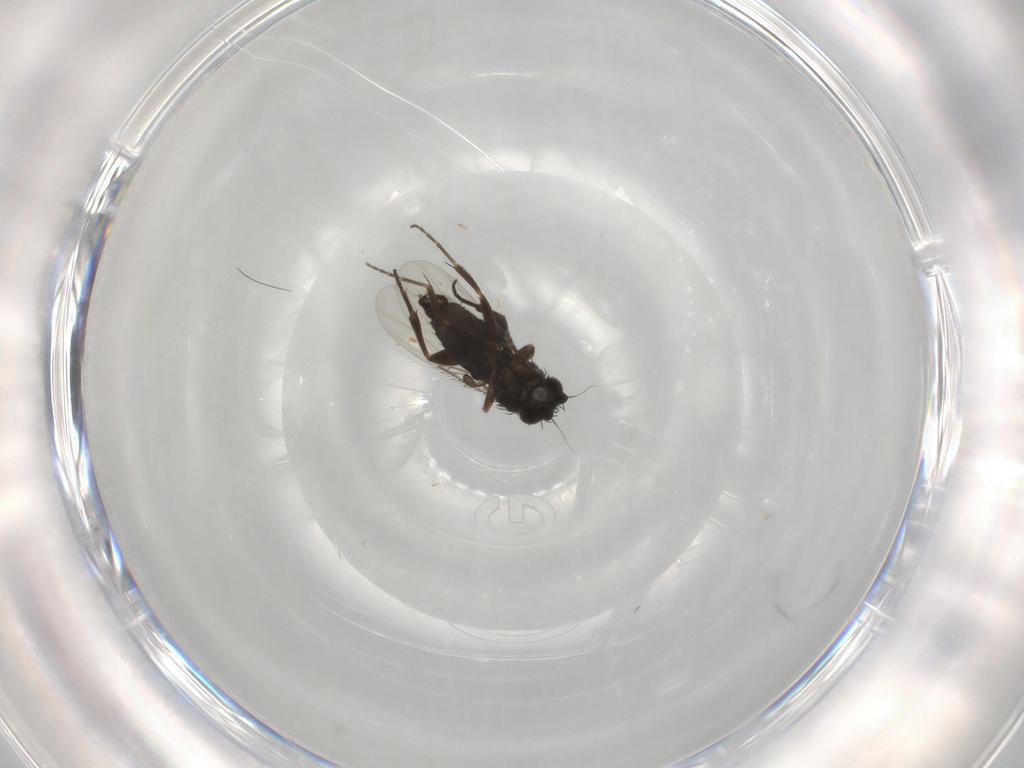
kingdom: Animalia
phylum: Arthropoda
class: Insecta
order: Diptera
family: Phoridae
